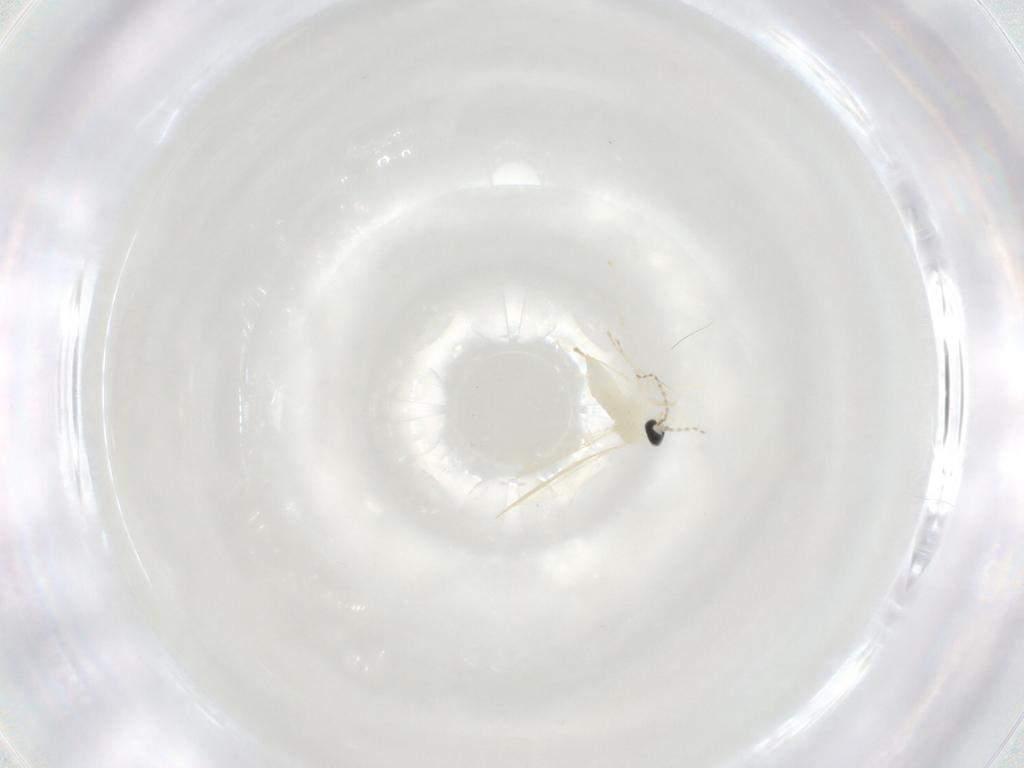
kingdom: Animalia
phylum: Arthropoda
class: Insecta
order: Diptera
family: Cecidomyiidae
